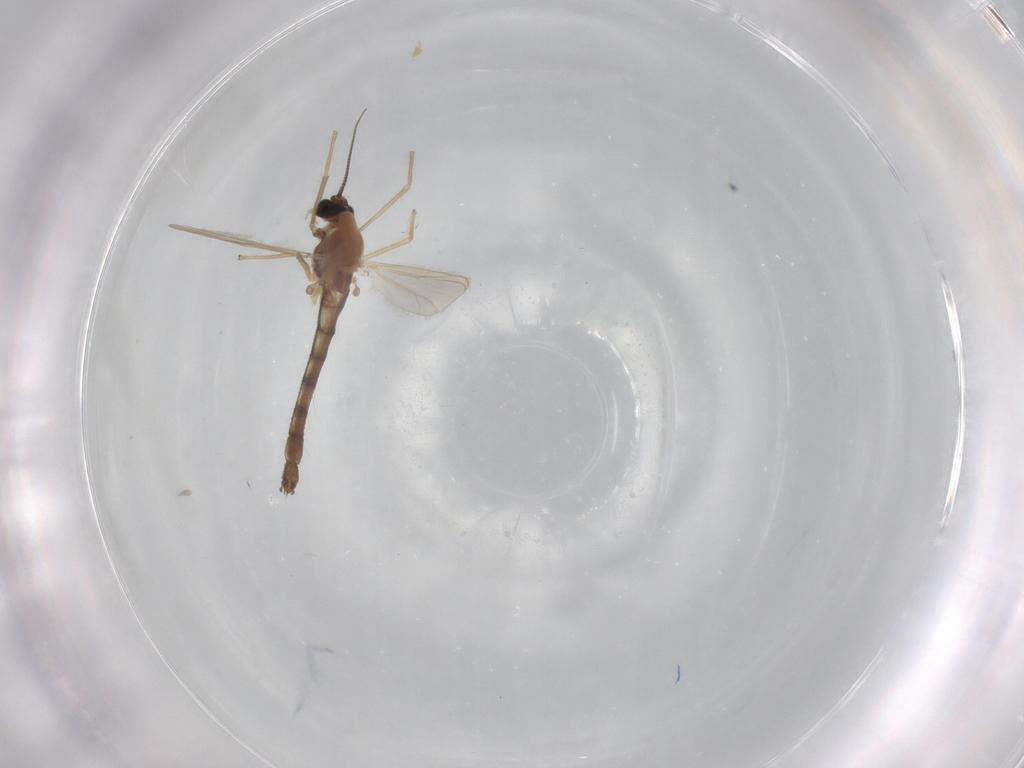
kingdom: Animalia
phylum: Arthropoda
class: Insecta
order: Diptera
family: Chironomidae
